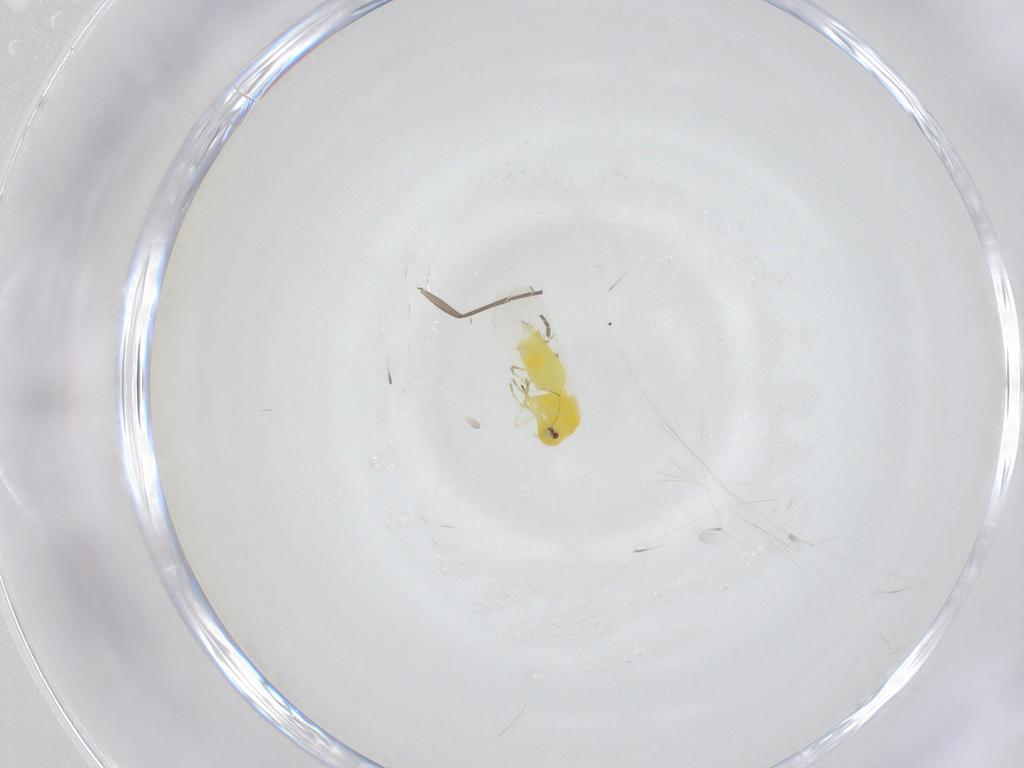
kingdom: Animalia
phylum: Arthropoda
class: Insecta
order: Hemiptera
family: Aleyrodidae
